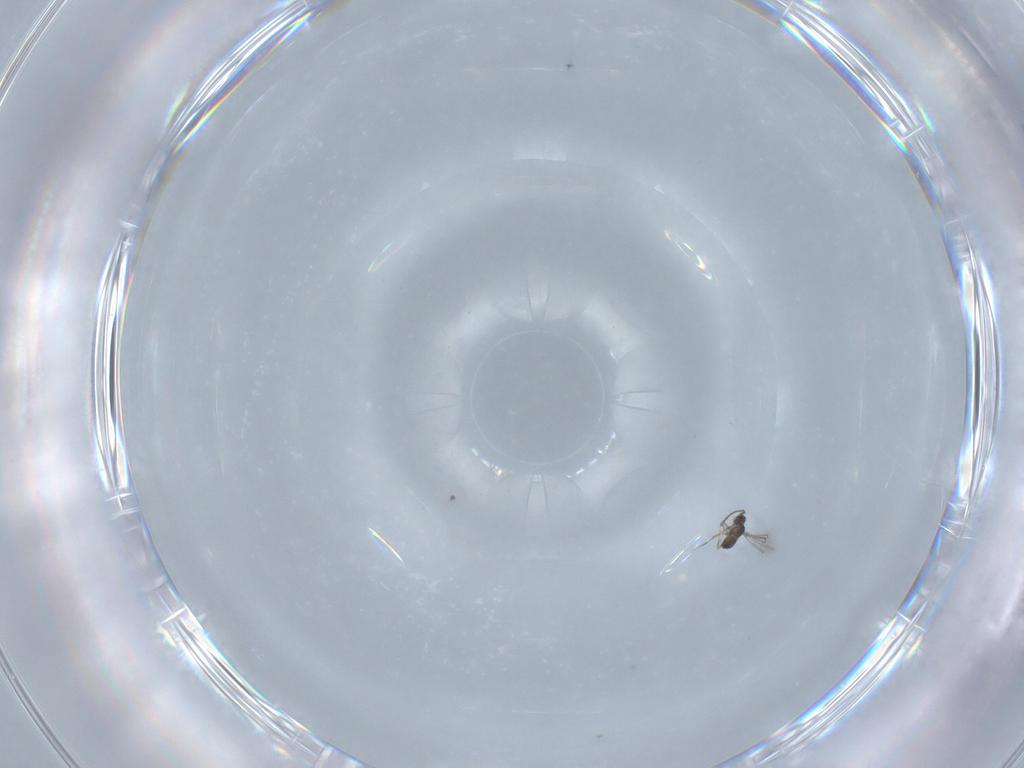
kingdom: Animalia
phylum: Arthropoda
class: Insecta
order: Hymenoptera
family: Mymaridae
